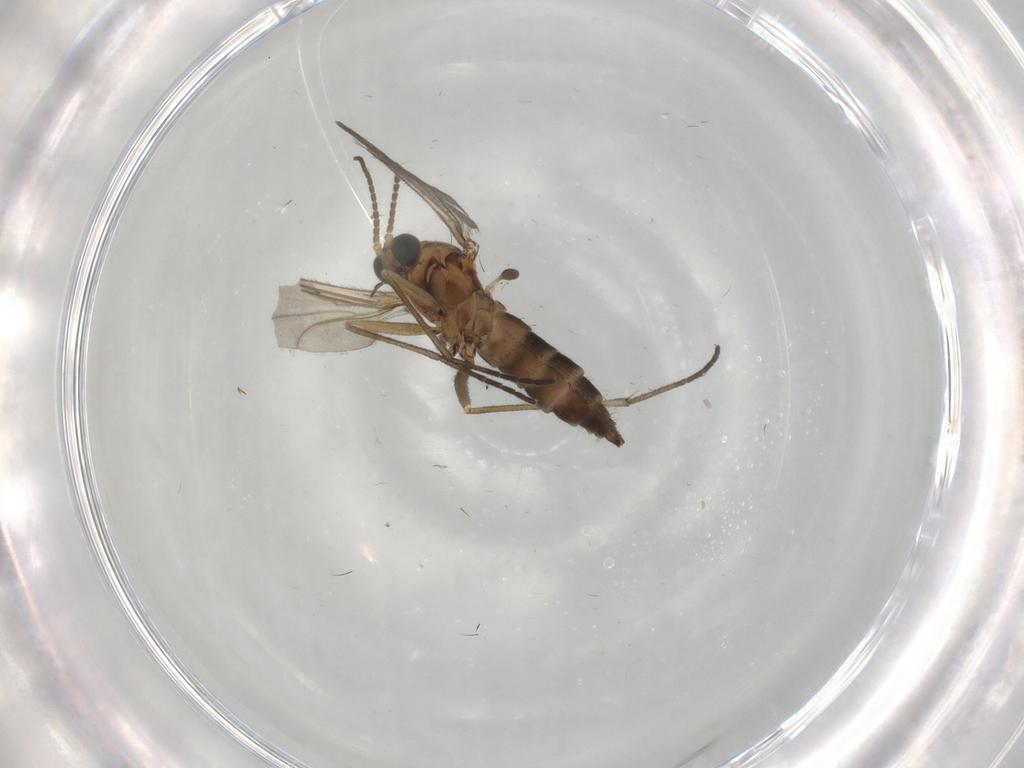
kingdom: Animalia
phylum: Arthropoda
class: Insecta
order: Diptera
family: Sciaridae
